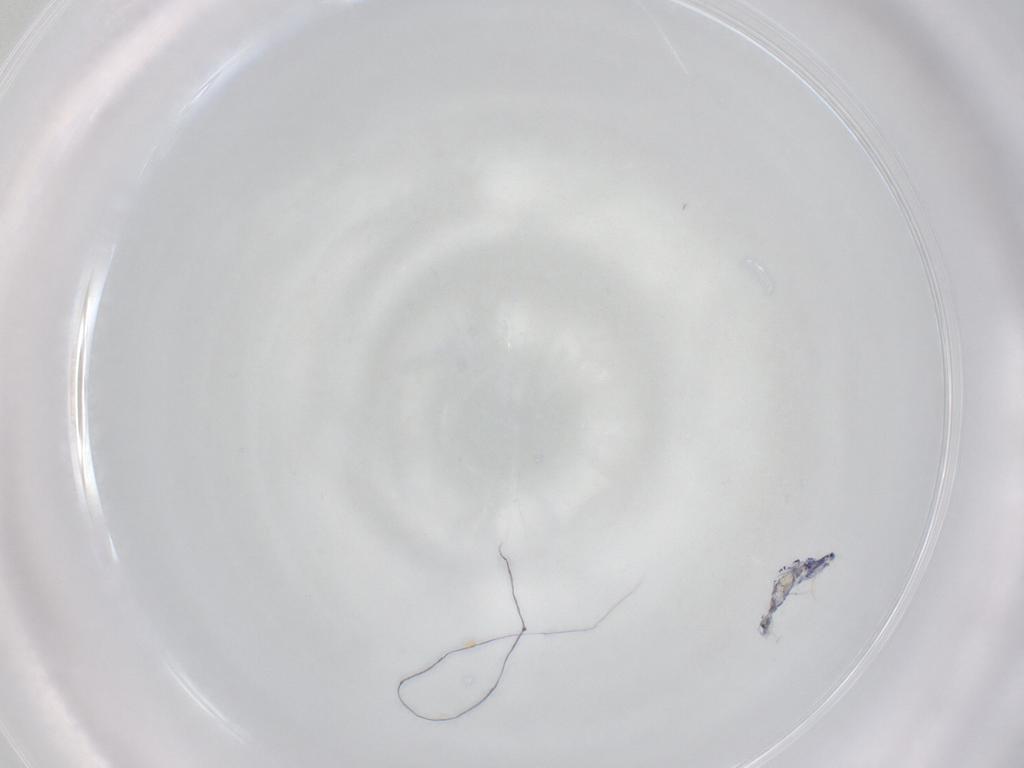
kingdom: Animalia
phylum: Arthropoda
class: Collembola
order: Entomobryomorpha
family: Entomobryidae
